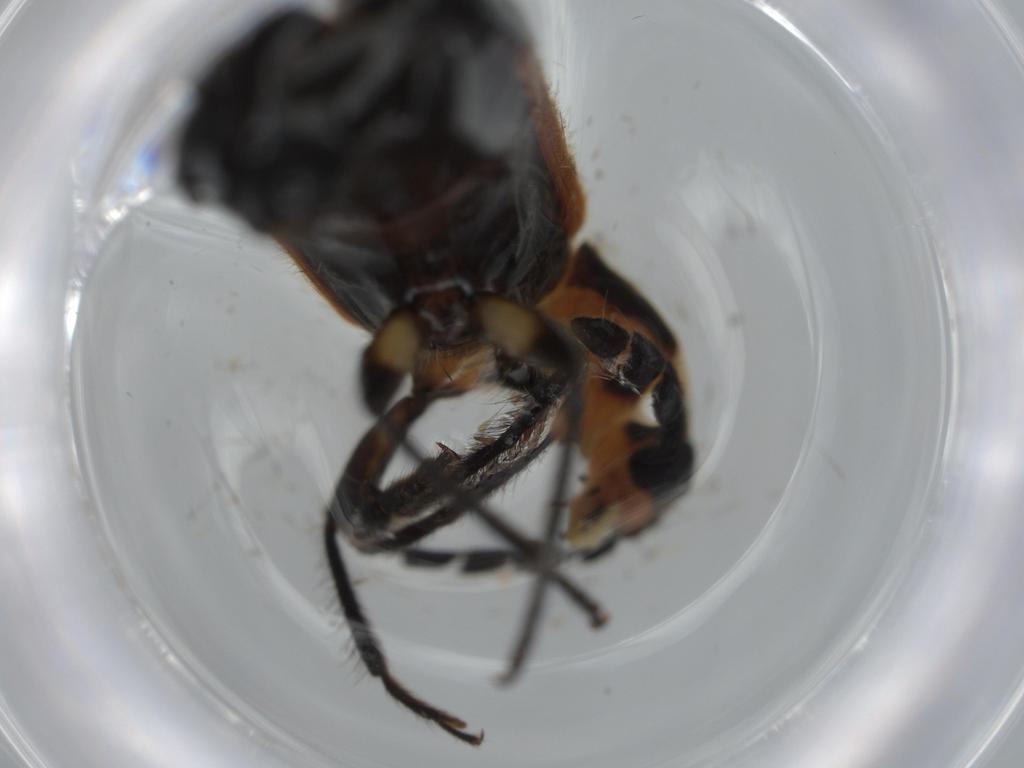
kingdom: Animalia
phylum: Arthropoda
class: Insecta
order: Coleoptera
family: Cleridae
